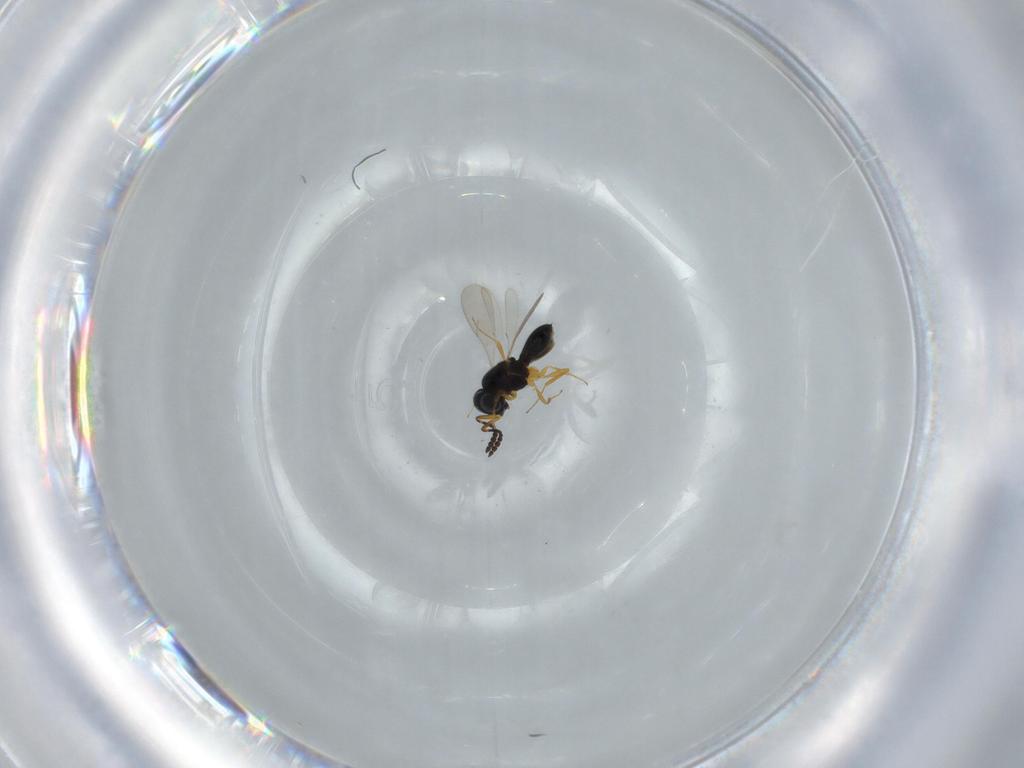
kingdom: Animalia
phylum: Arthropoda
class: Insecta
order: Hymenoptera
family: Scelionidae
